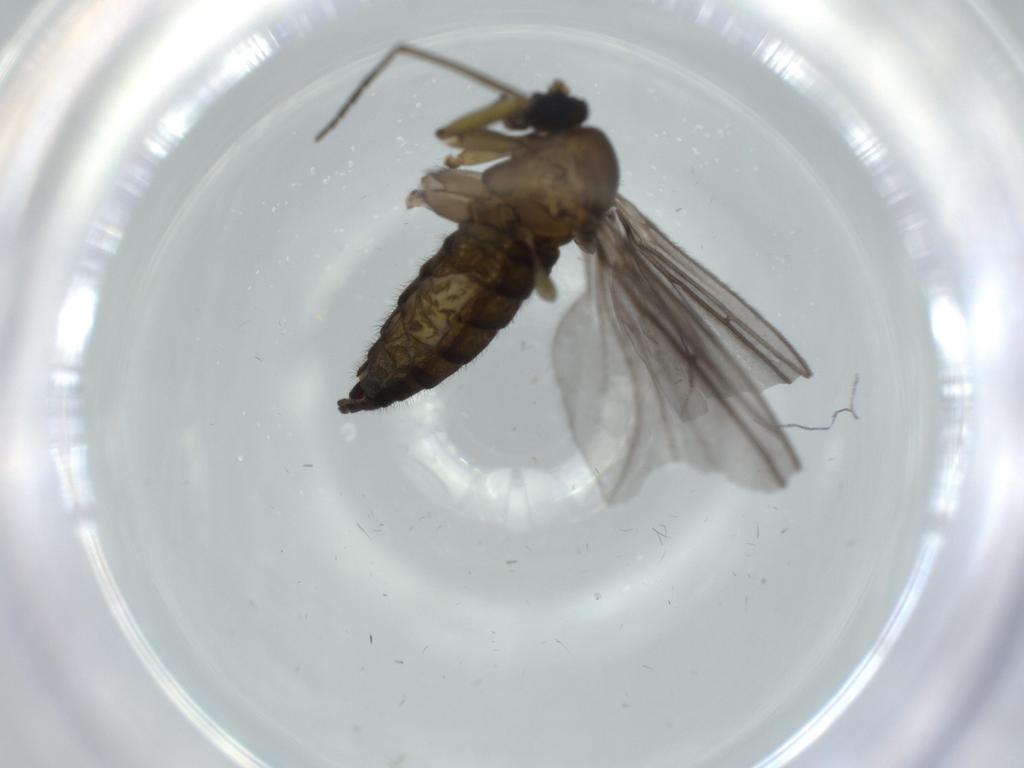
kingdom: Animalia
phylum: Arthropoda
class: Insecta
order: Diptera
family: Sciaridae
